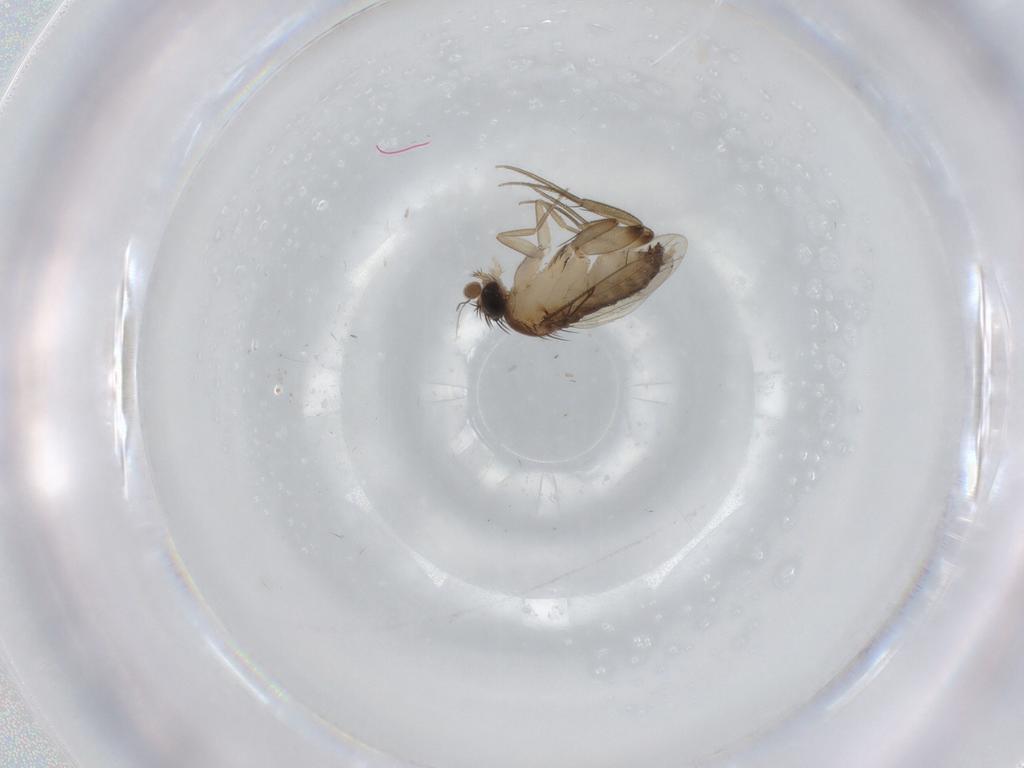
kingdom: Animalia
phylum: Arthropoda
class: Insecta
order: Diptera
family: Phoridae
